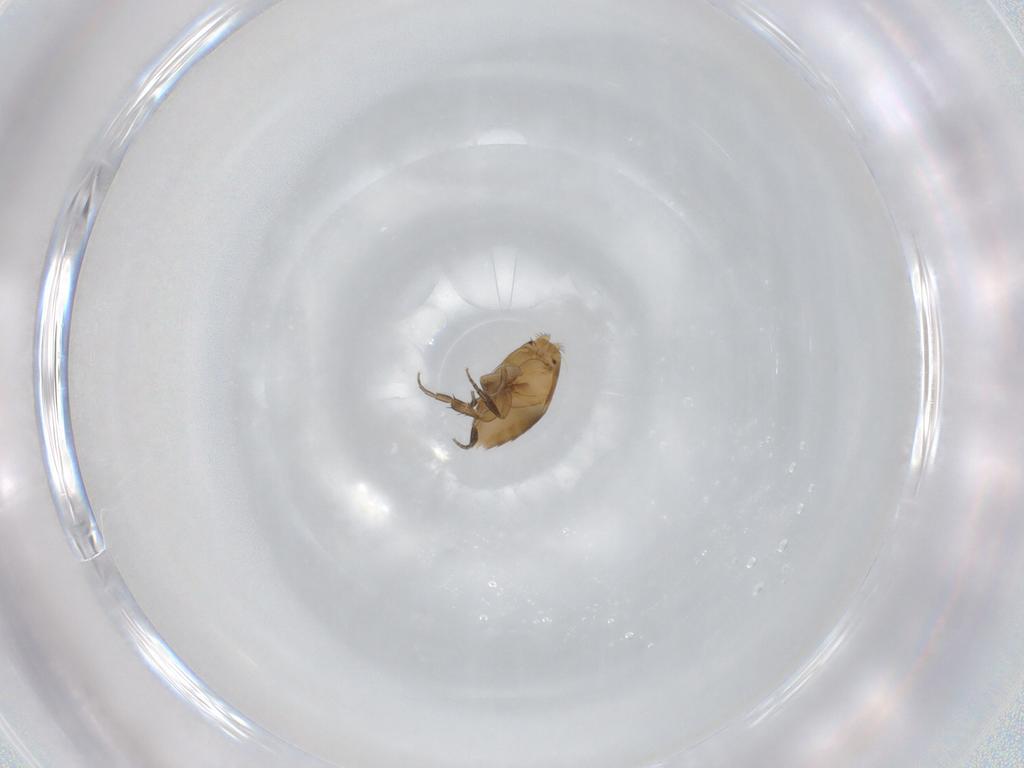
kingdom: Animalia
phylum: Arthropoda
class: Insecta
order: Diptera
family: Phoridae
